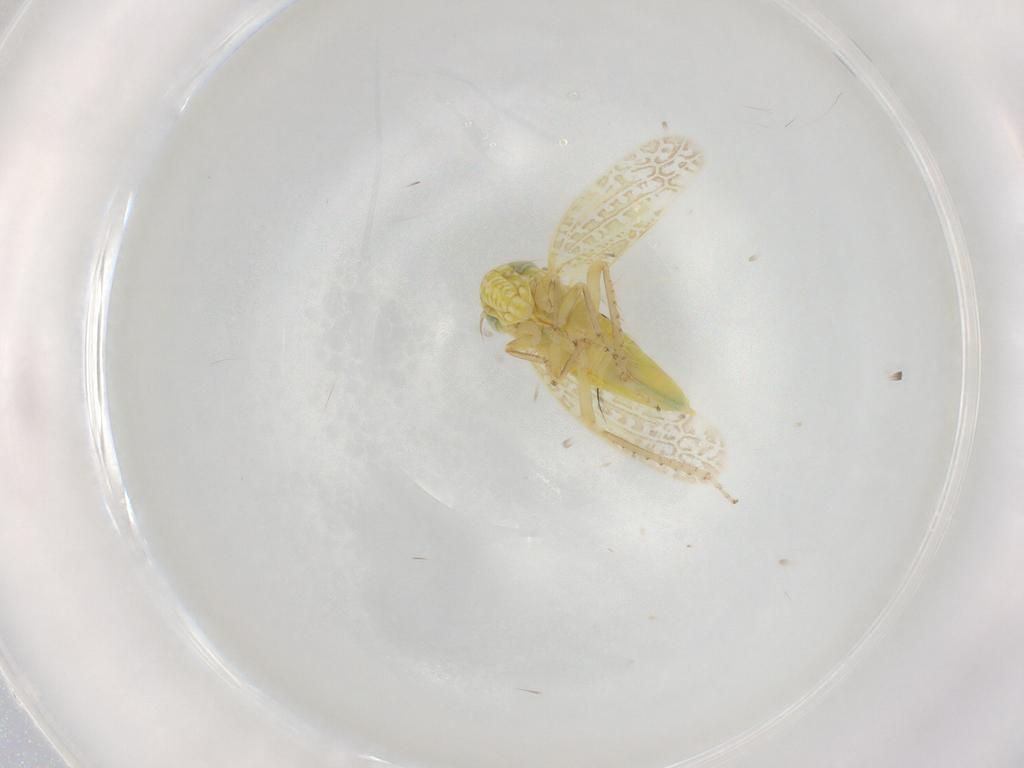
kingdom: Animalia
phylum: Arthropoda
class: Insecta
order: Hemiptera
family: Cicadellidae
